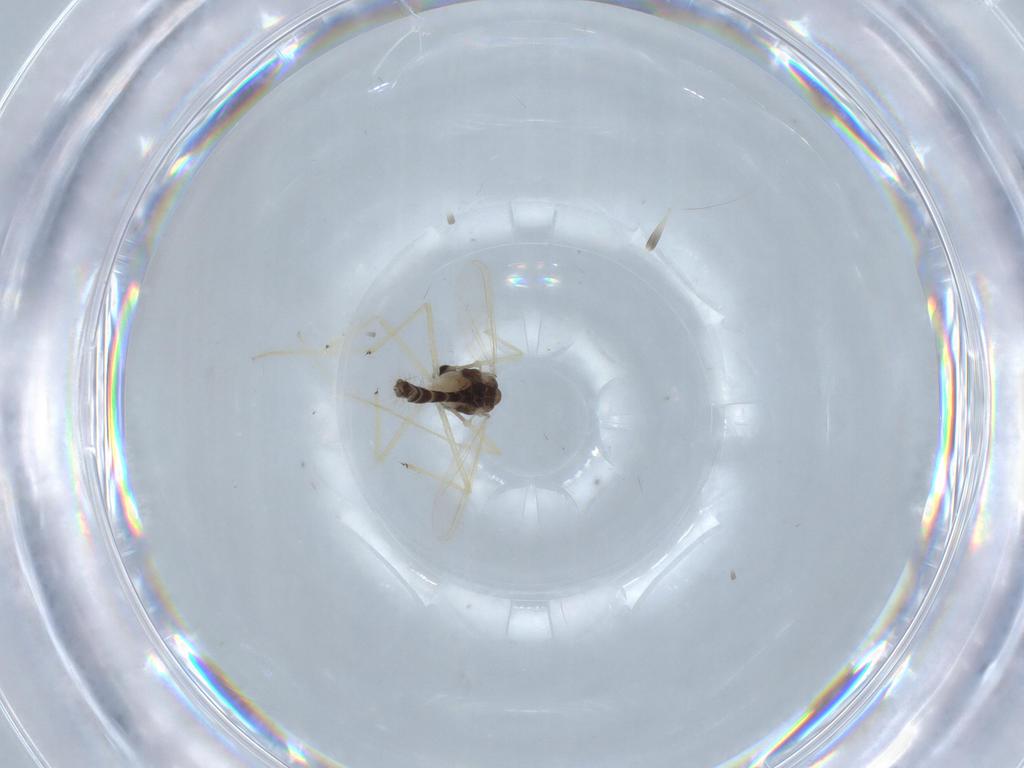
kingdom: Animalia
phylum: Arthropoda
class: Insecta
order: Diptera
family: Chironomidae
